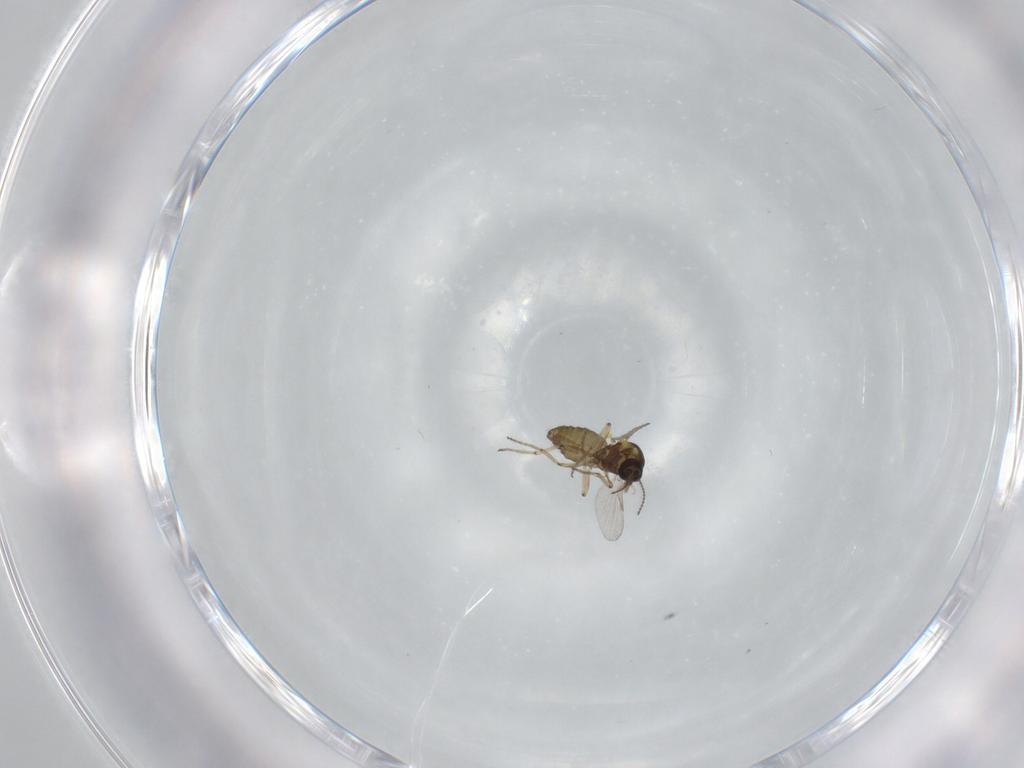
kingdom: Animalia
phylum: Arthropoda
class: Insecta
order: Diptera
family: Ceratopogonidae
